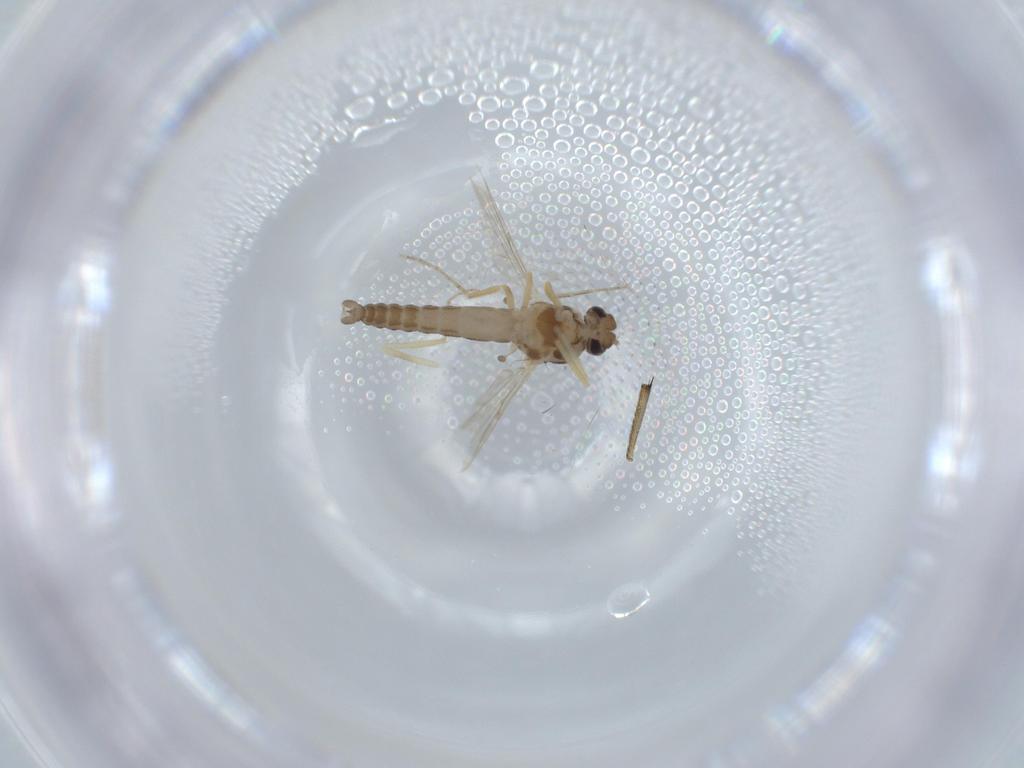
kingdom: Animalia
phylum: Arthropoda
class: Insecta
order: Diptera
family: Ceratopogonidae
